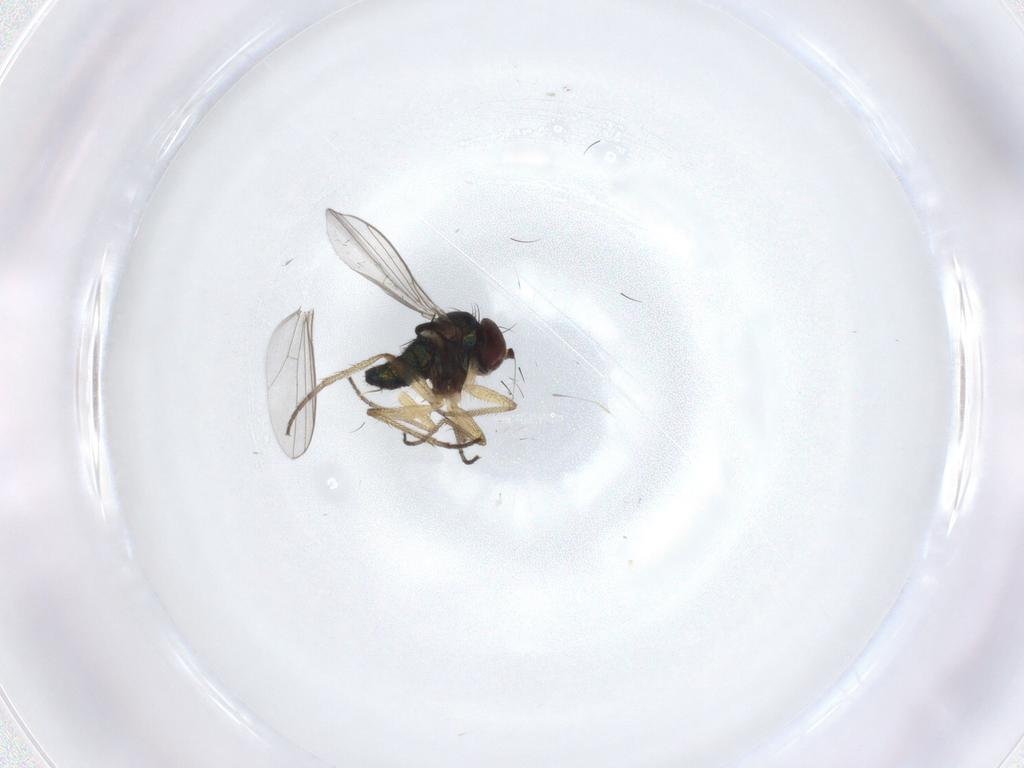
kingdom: Animalia
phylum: Arthropoda
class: Insecta
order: Diptera
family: Dolichopodidae
